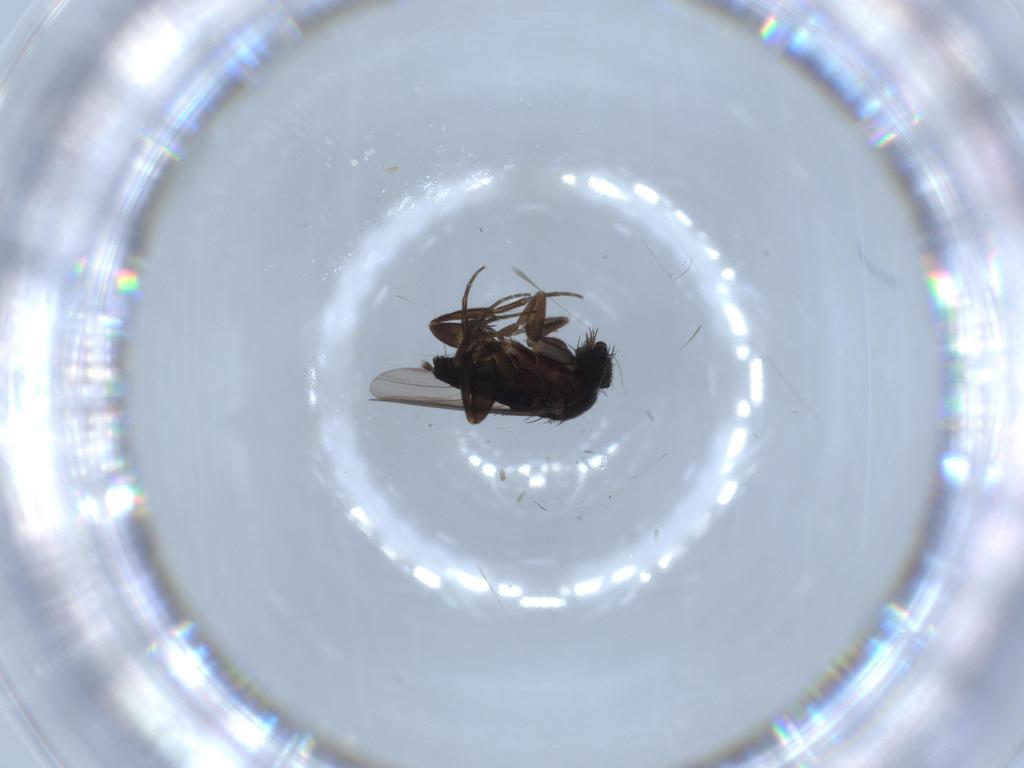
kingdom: Animalia
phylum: Arthropoda
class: Insecta
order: Diptera
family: Phoridae
